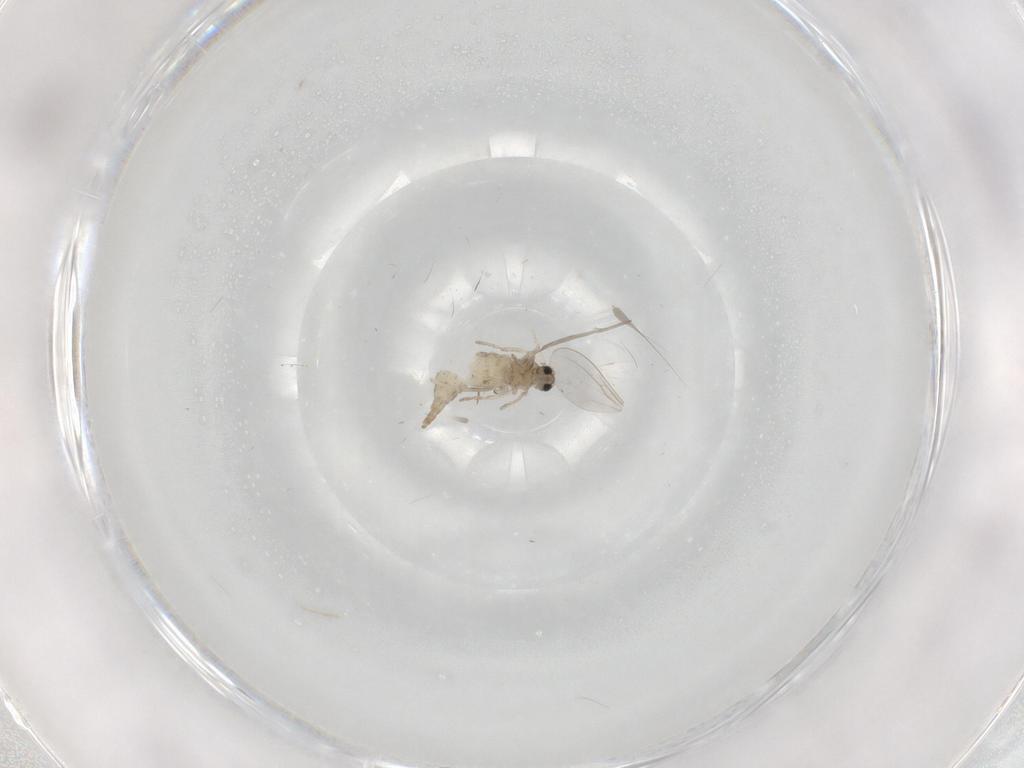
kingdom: Animalia
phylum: Arthropoda
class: Insecta
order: Diptera
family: Cecidomyiidae
